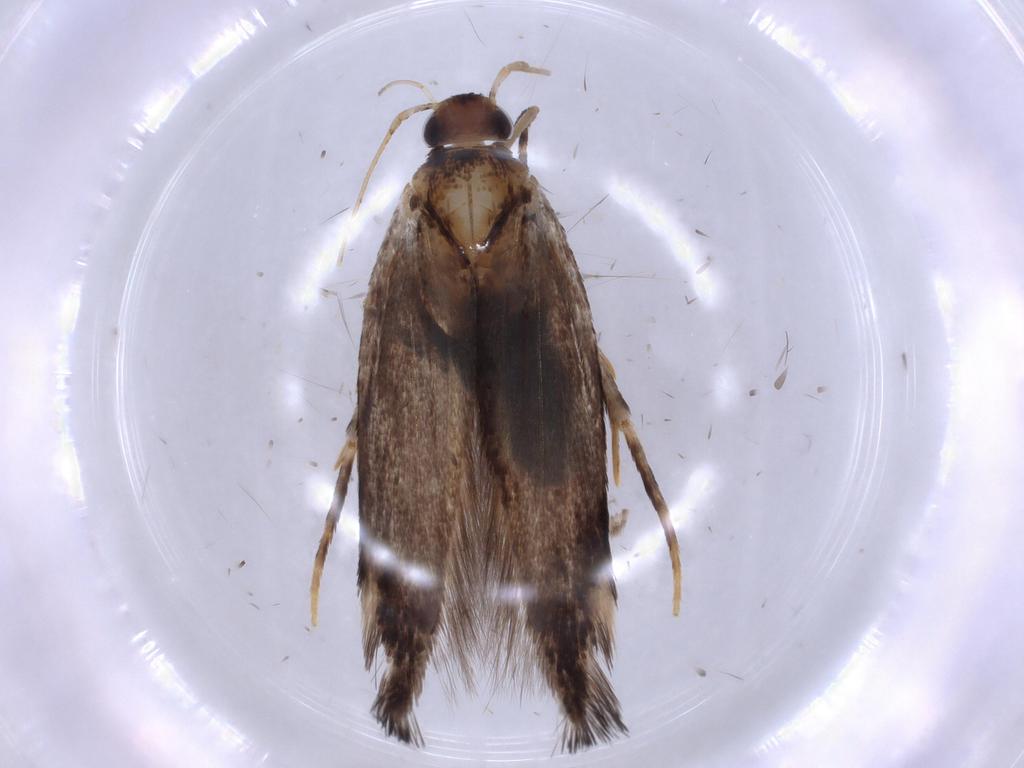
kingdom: Animalia
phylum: Arthropoda
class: Insecta
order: Lepidoptera
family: Cosmopterigidae
